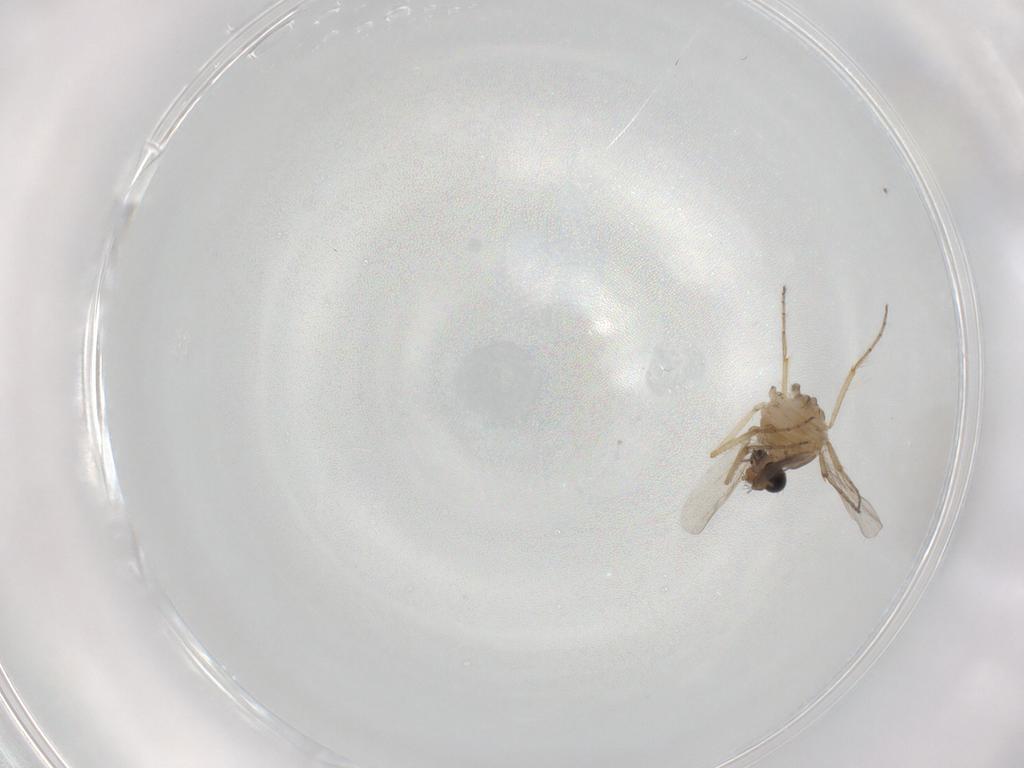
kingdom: Animalia
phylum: Arthropoda
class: Insecta
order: Diptera
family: Ceratopogonidae
